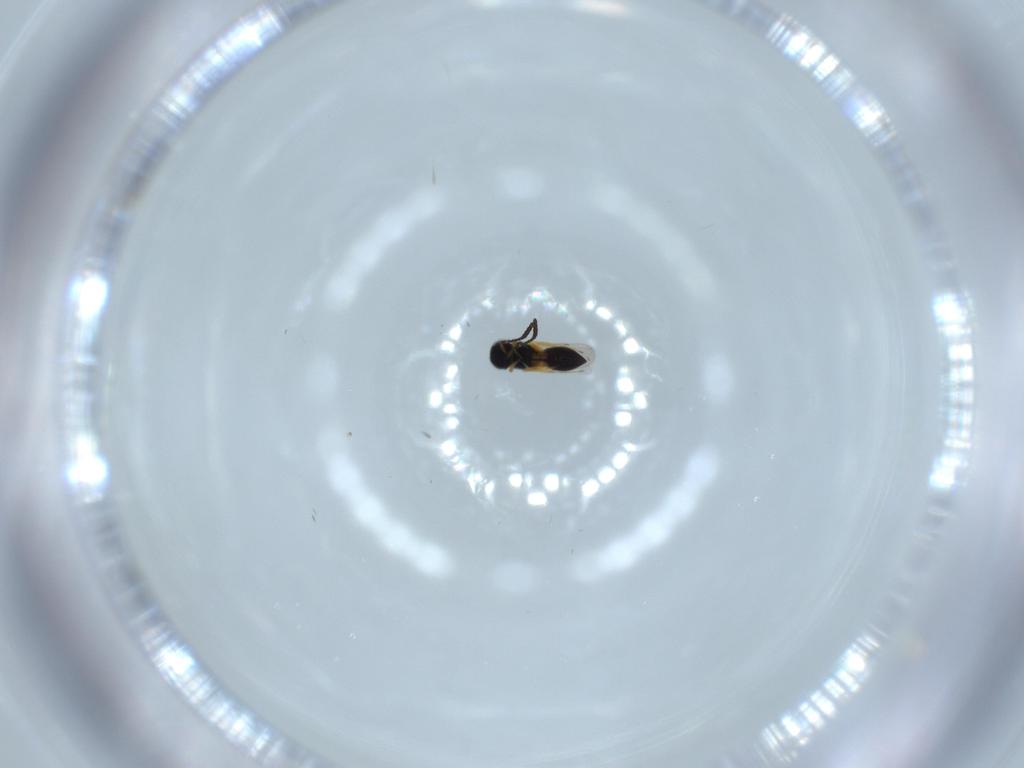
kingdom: Animalia
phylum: Arthropoda
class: Insecta
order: Hymenoptera
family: Scelionidae
